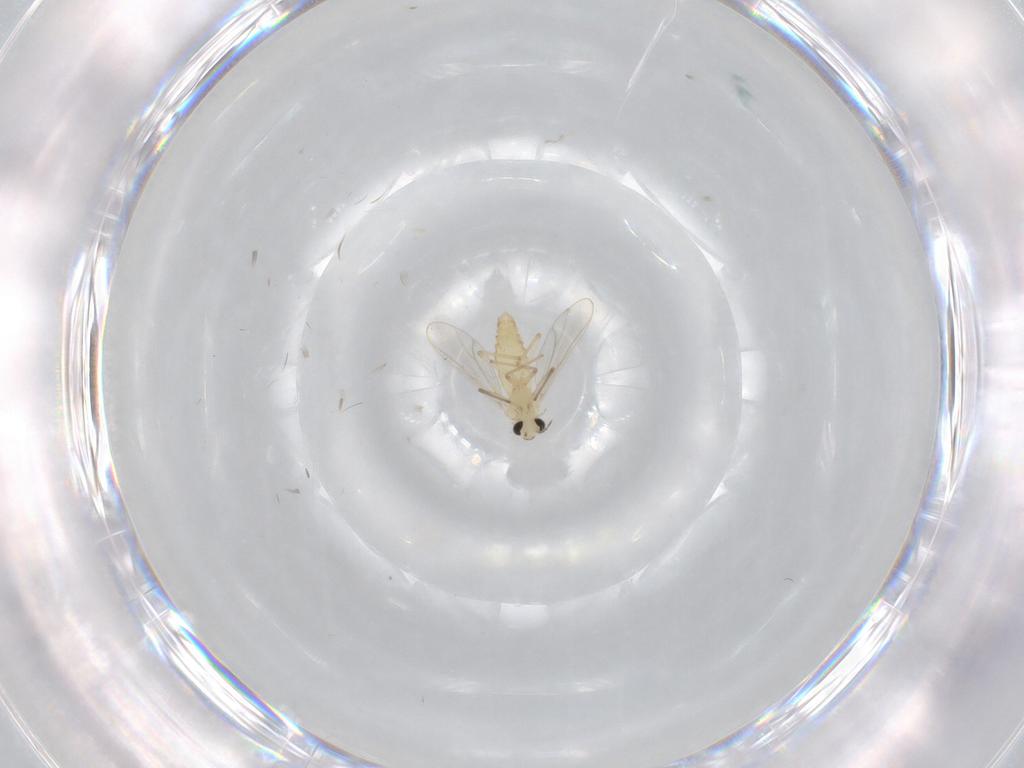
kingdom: Animalia
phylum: Arthropoda
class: Insecta
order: Diptera
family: Chironomidae
